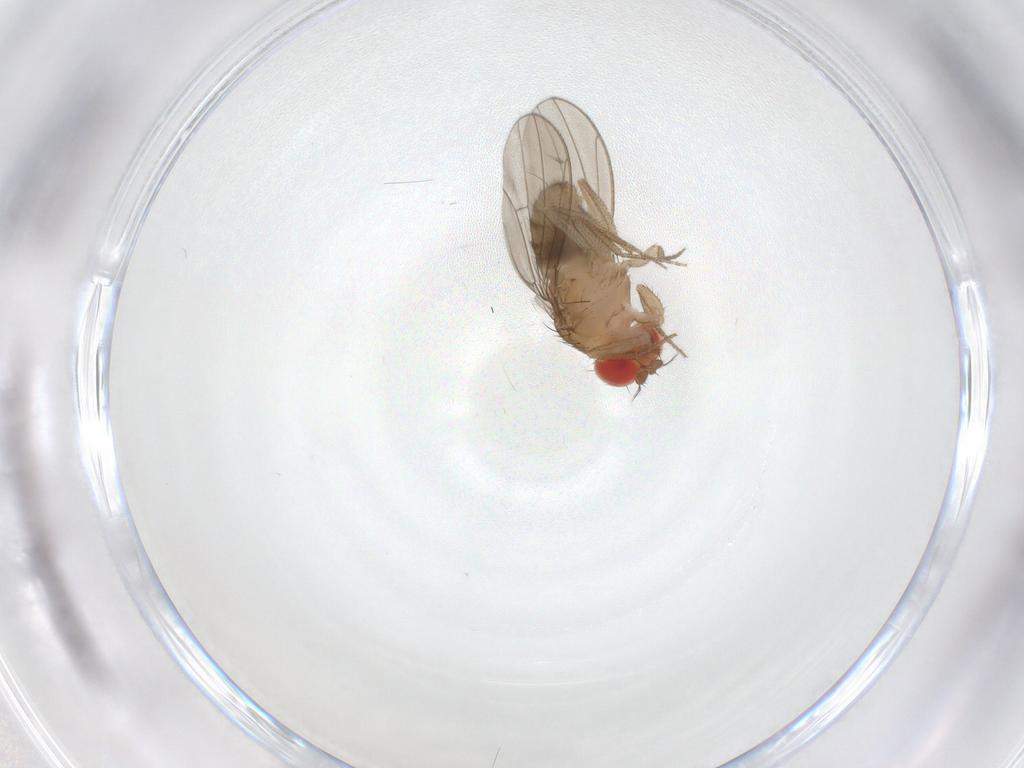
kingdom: Animalia
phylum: Arthropoda
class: Insecta
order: Diptera
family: Drosophilidae
